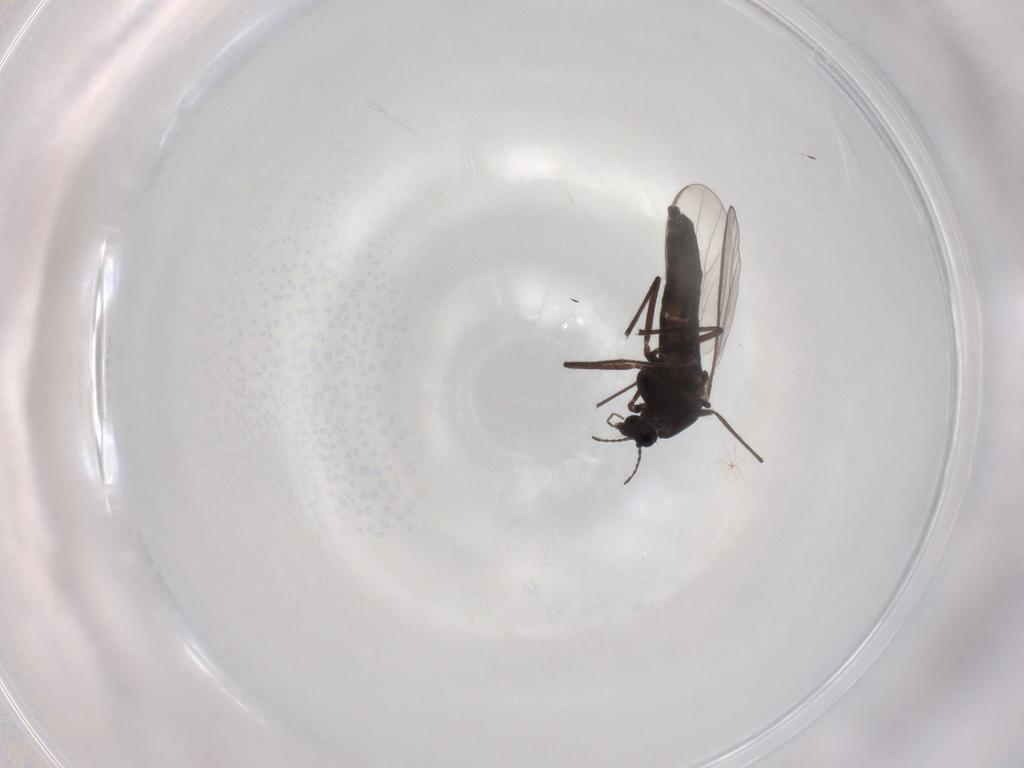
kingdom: Animalia
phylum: Arthropoda
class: Insecta
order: Diptera
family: Chironomidae
